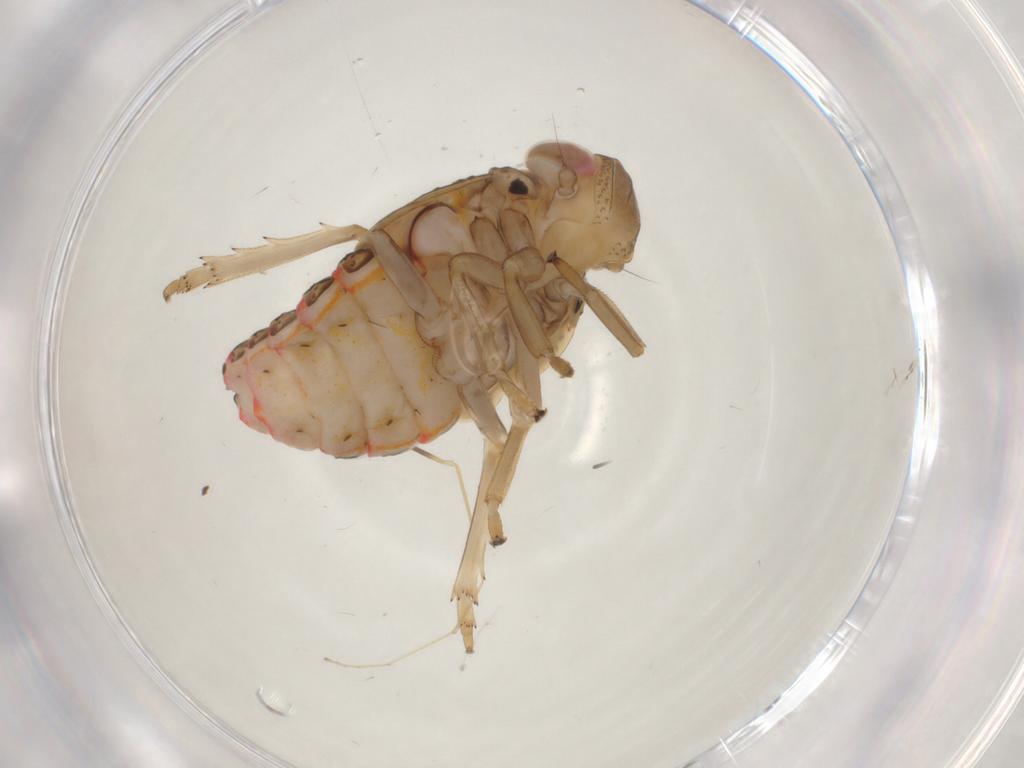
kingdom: Animalia
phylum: Arthropoda
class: Insecta
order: Hemiptera
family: Issidae
